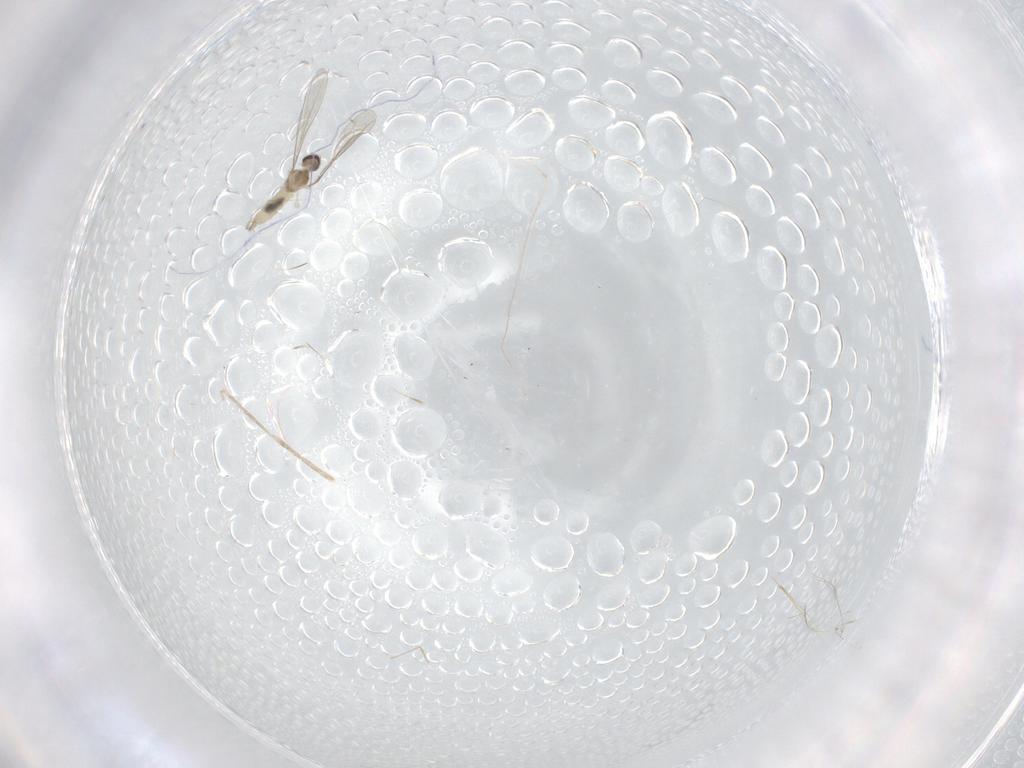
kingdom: Animalia
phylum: Arthropoda
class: Insecta
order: Diptera
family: Cecidomyiidae
